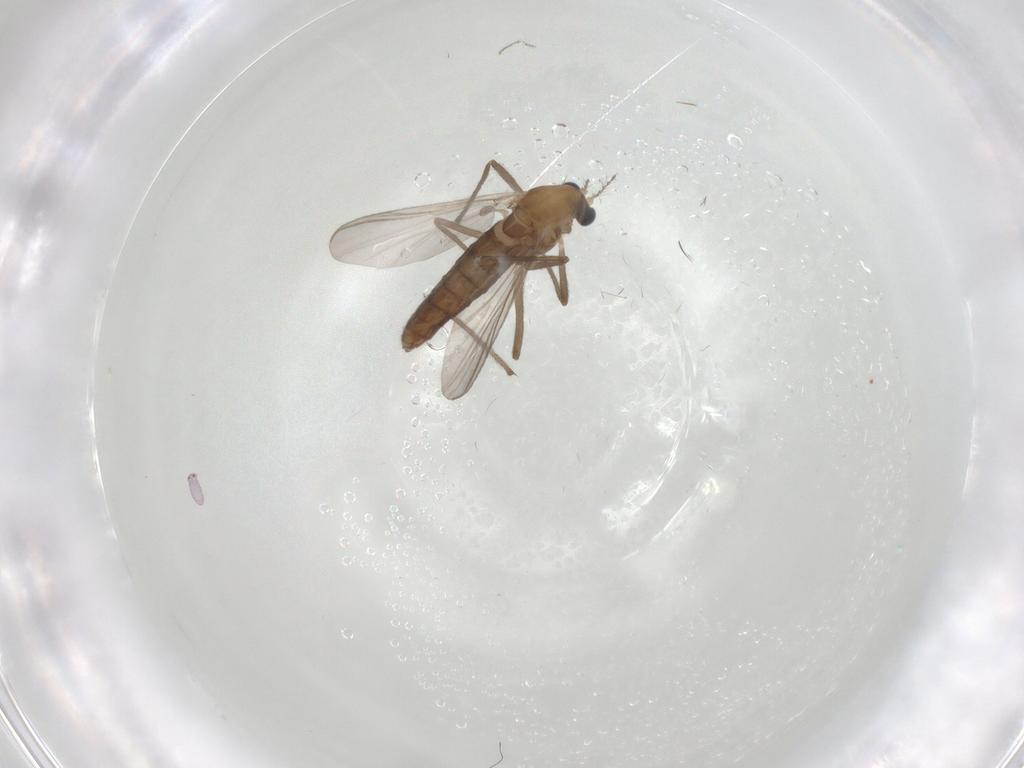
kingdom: Animalia
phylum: Arthropoda
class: Insecta
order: Diptera
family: Chironomidae
